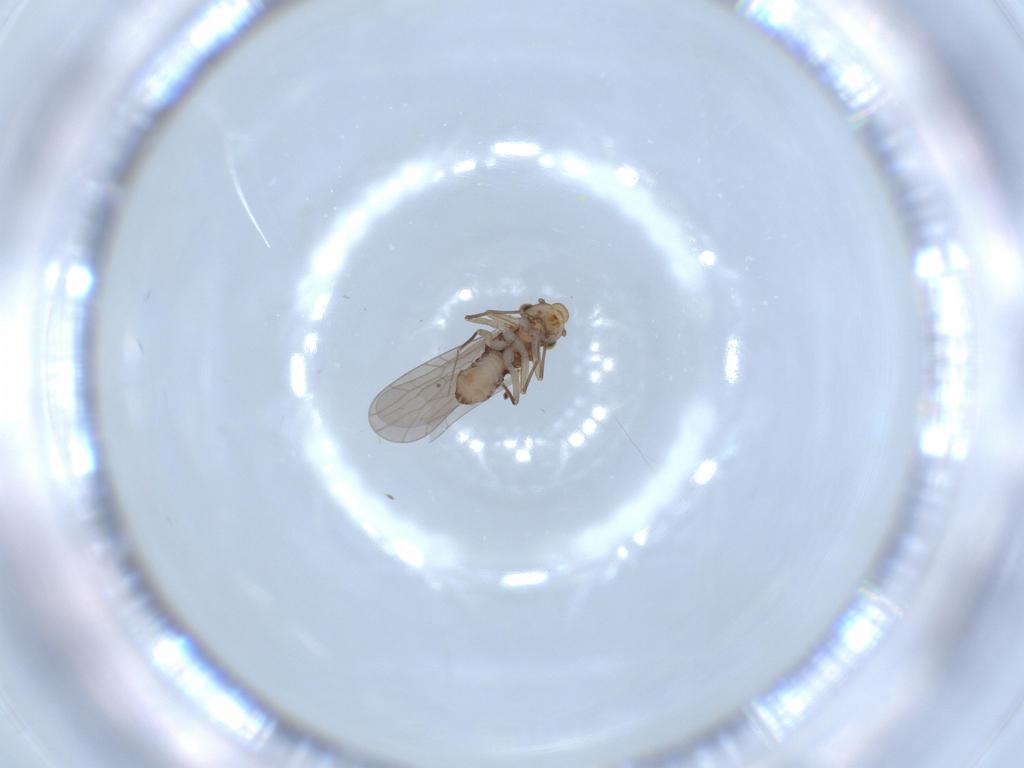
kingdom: Animalia
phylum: Arthropoda
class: Insecta
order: Psocodea
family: Lepidopsocidae
